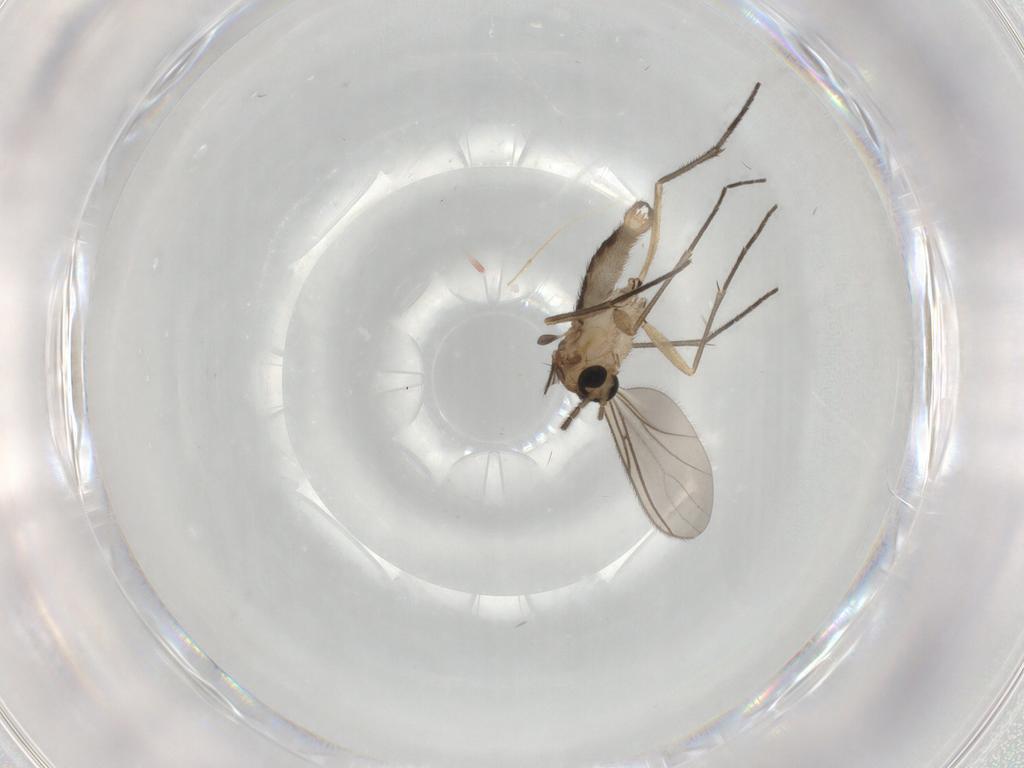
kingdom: Animalia
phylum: Arthropoda
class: Insecta
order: Diptera
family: Sciaridae
